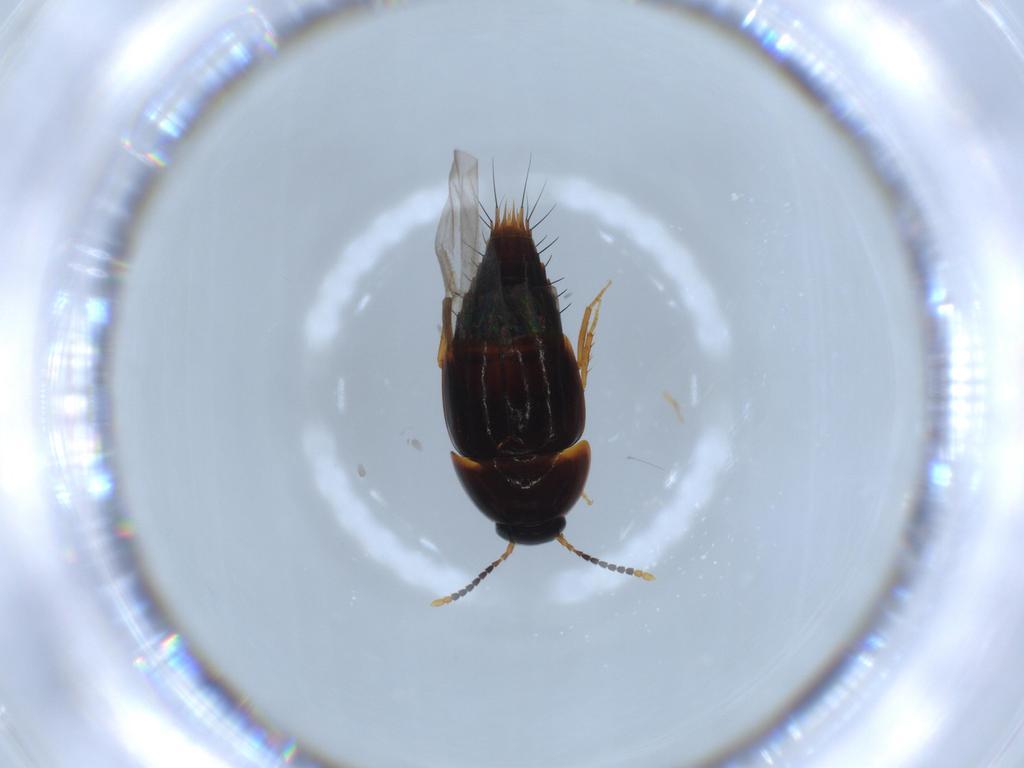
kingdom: Animalia
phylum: Arthropoda
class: Insecta
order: Coleoptera
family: Staphylinidae
